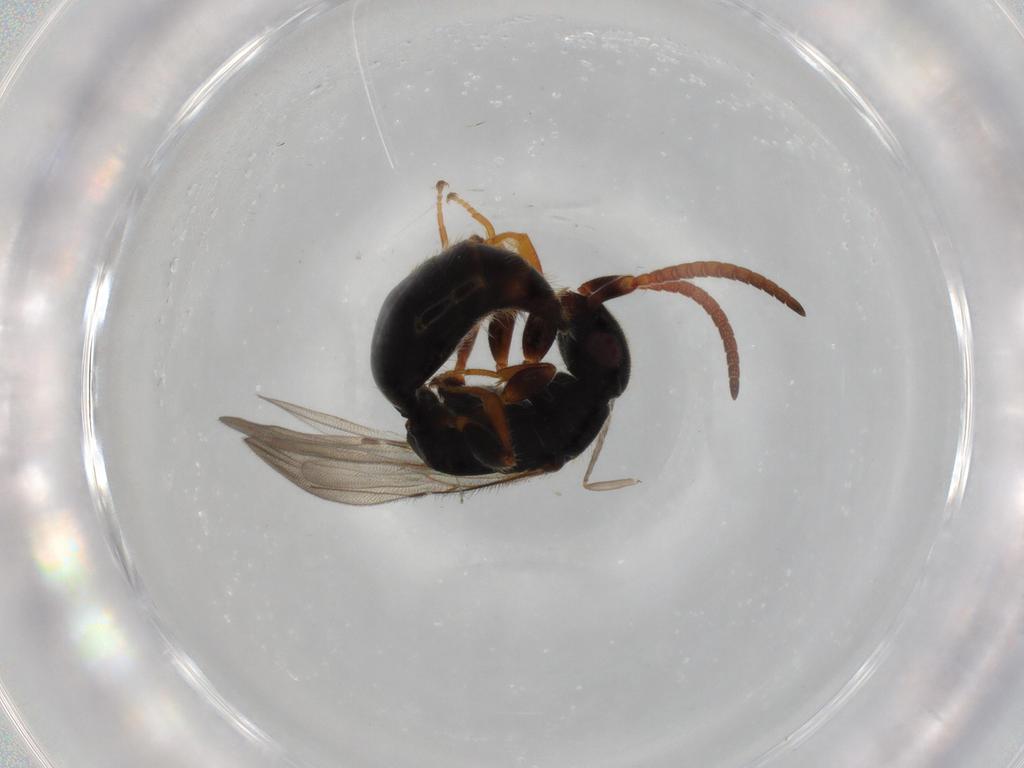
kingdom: Animalia
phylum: Arthropoda
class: Insecta
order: Hymenoptera
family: Bethylidae
